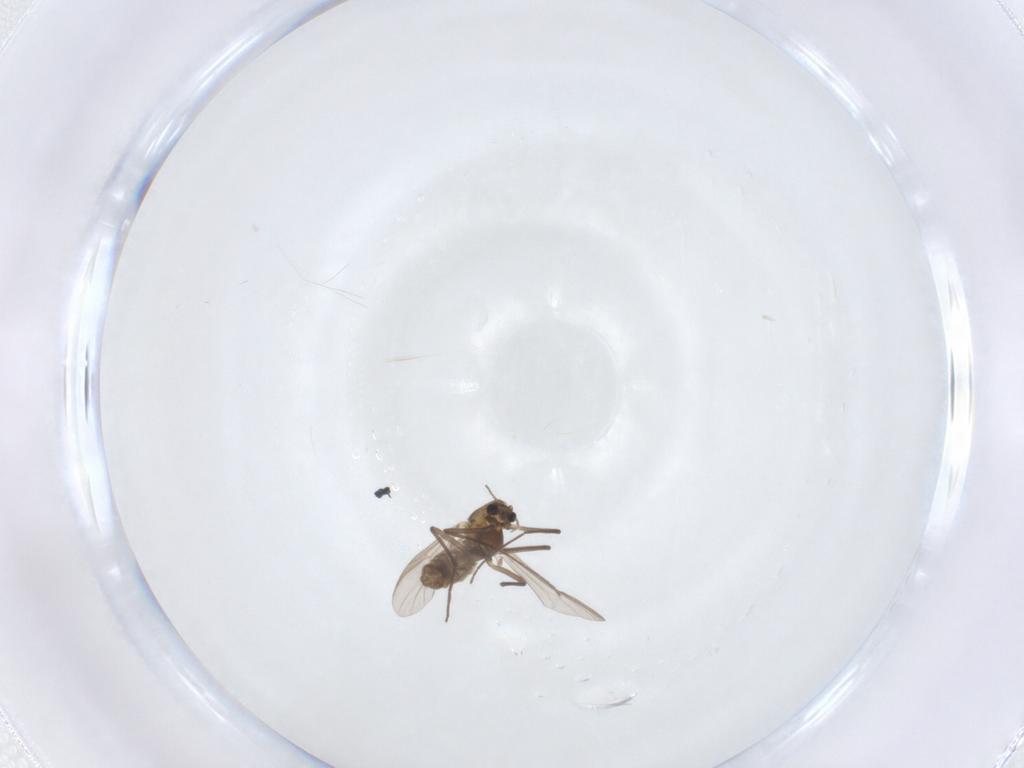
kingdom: Animalia
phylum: Arthropoda
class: Insecta
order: Diptera
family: Chironomidae
